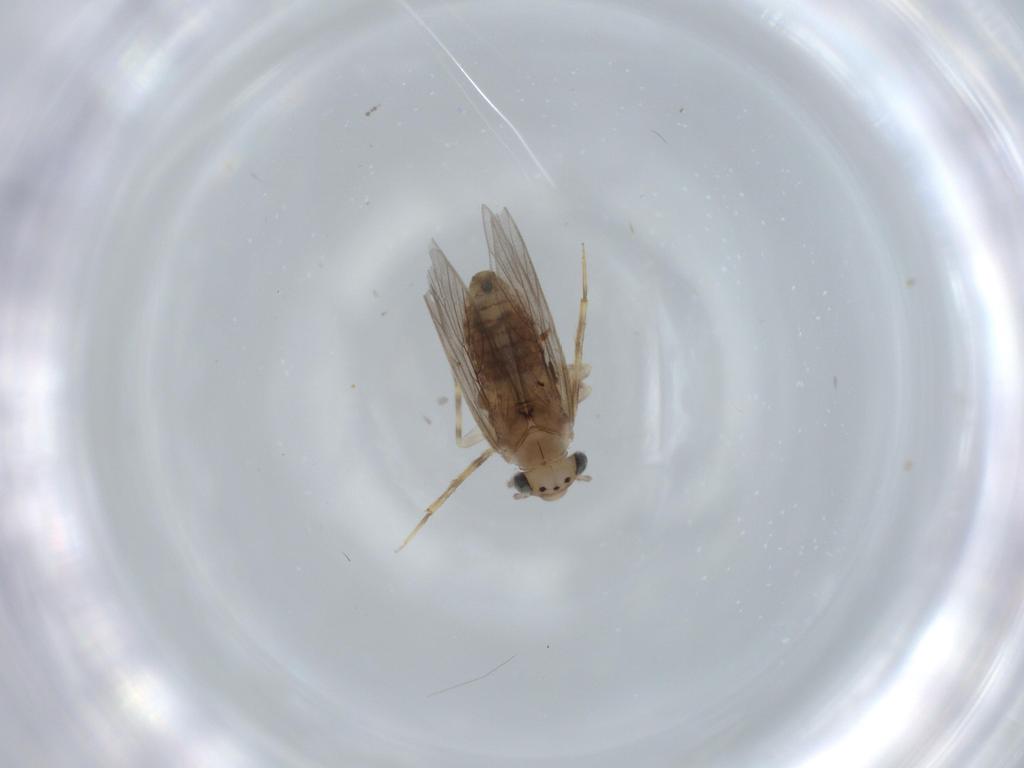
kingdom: Animalia
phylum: Arthropoda
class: Insecta
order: Psocodea
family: Lepidopsocidae
